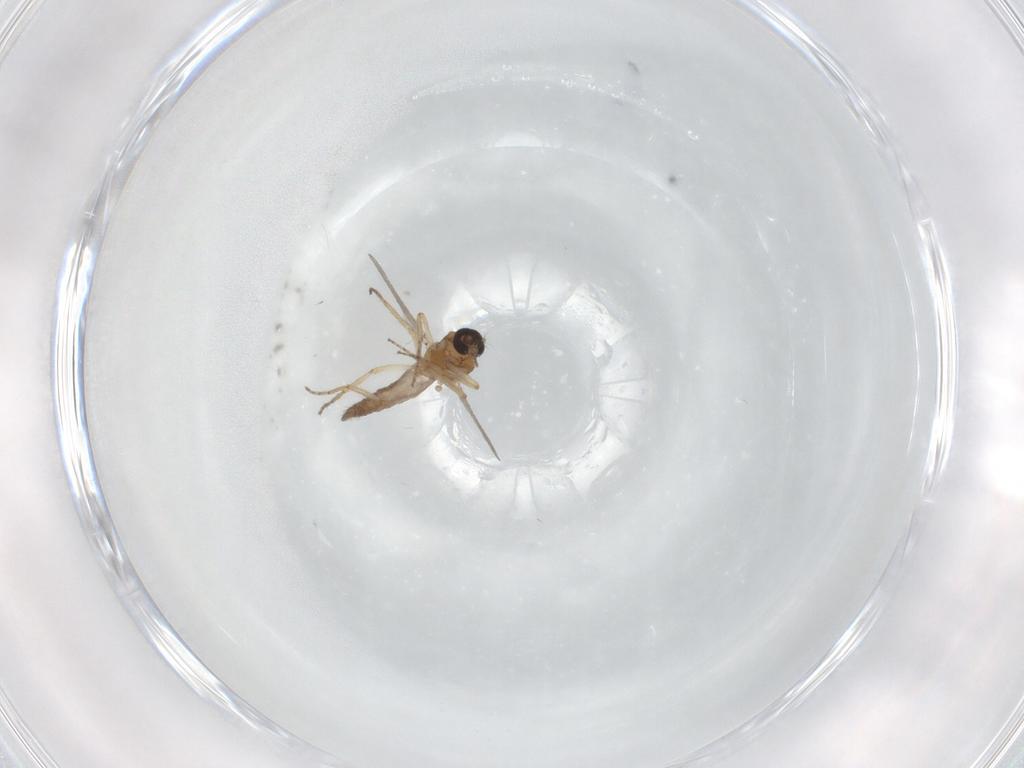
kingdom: Animalia
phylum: Arthropoda
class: Insecta
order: Diptera
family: Ceratopogonidae
